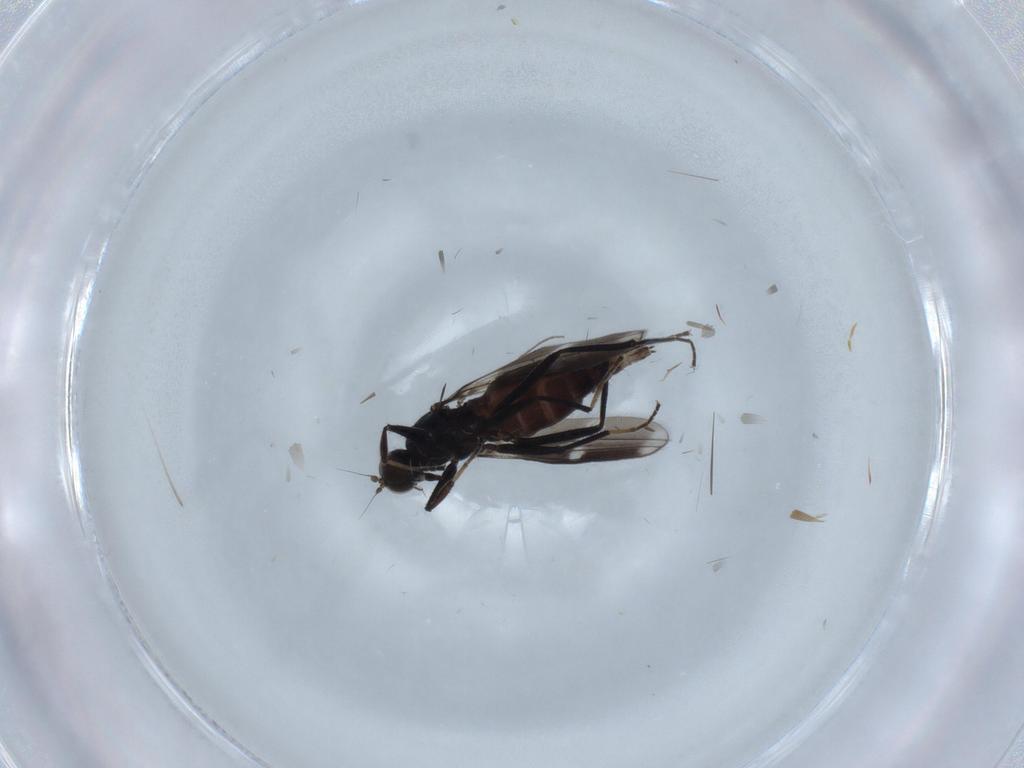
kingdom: Animalia
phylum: Arthropoda
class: Insecta
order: Diptera
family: Hybotidae
